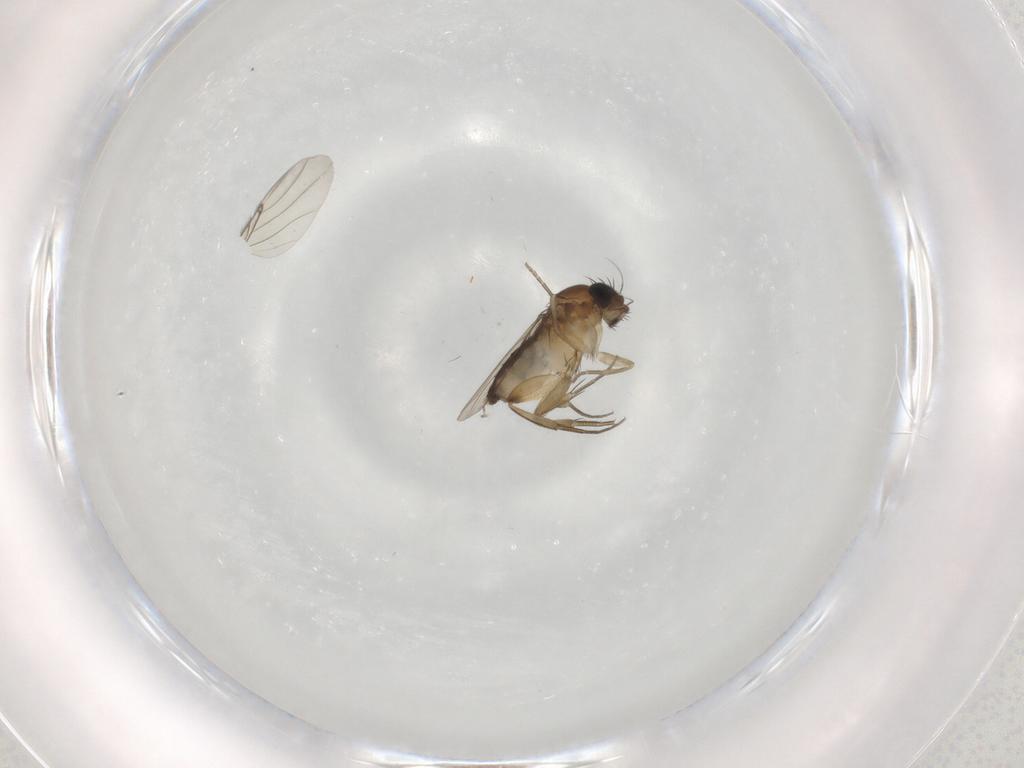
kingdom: Animalia
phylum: Arthropoda
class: Insecta
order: Diptera
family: Phoridae
